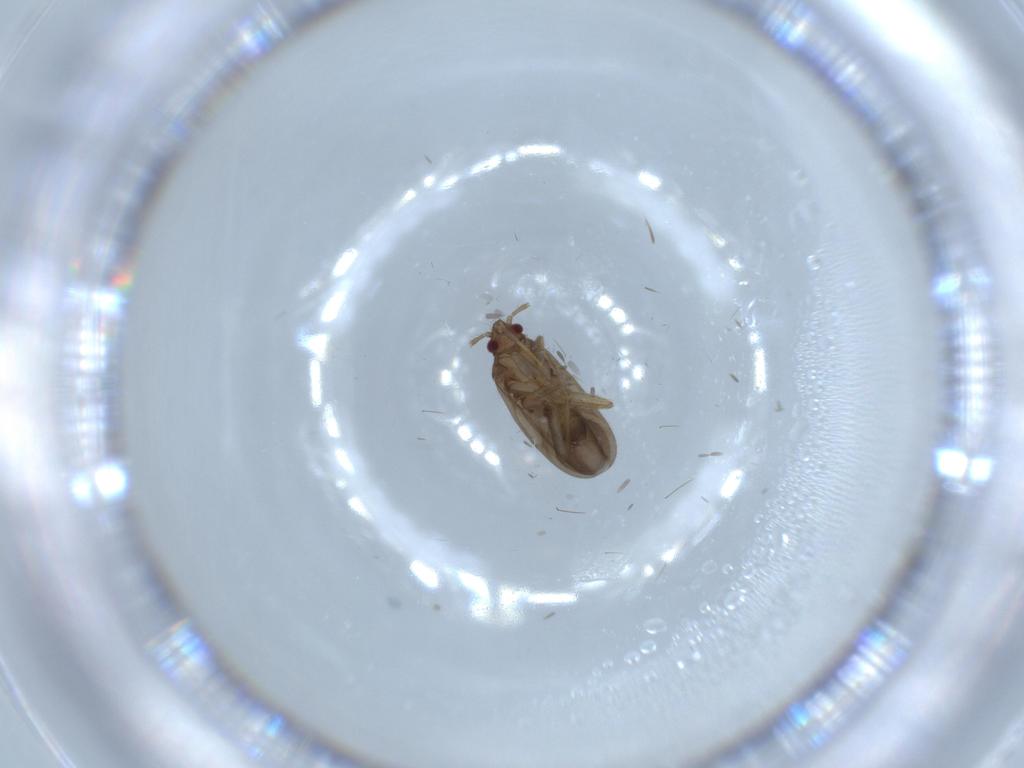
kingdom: Animalia
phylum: Arthropoda
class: Insecta
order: Hemiptera
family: Ceratocombidae
